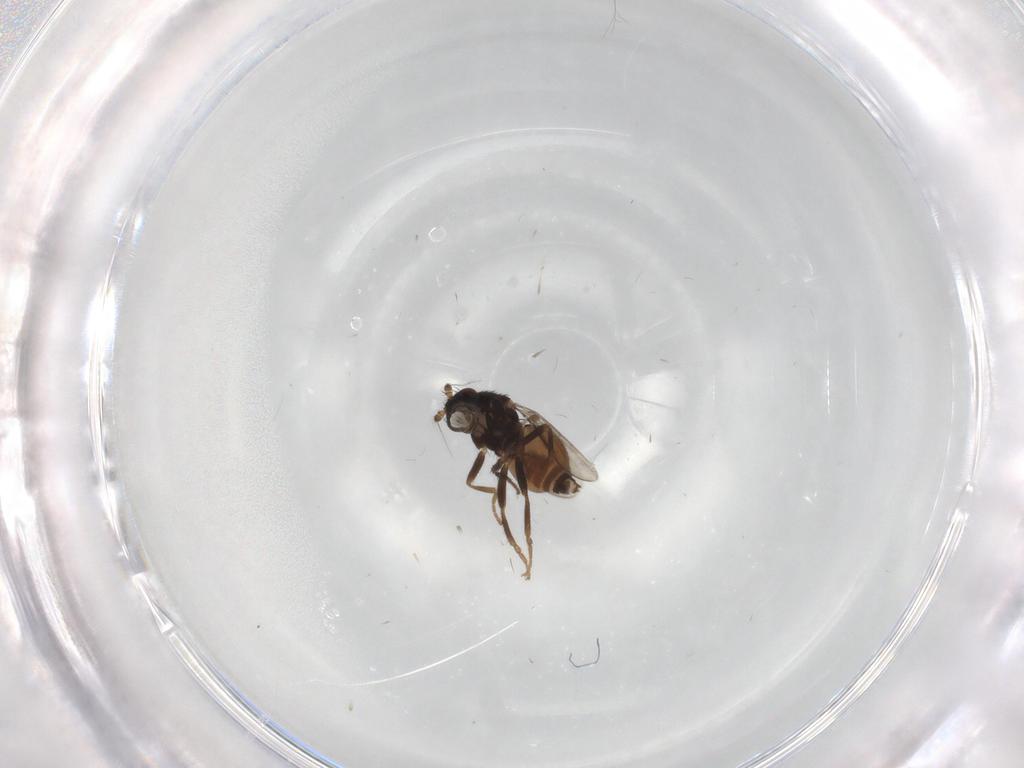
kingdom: Animalia
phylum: Arthropoda
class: Insecta
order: Diptera
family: Sphaeroceridae
